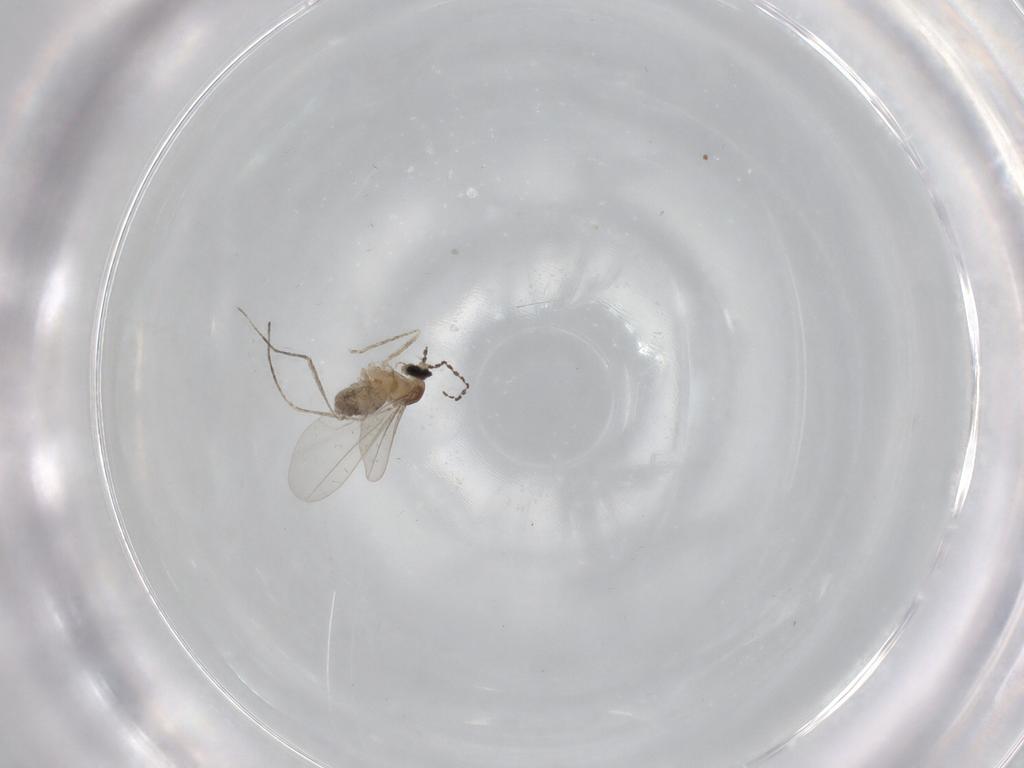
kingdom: Animalia
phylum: Arthropoda
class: Insecta
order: Diptera
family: Cecidomyiidae
